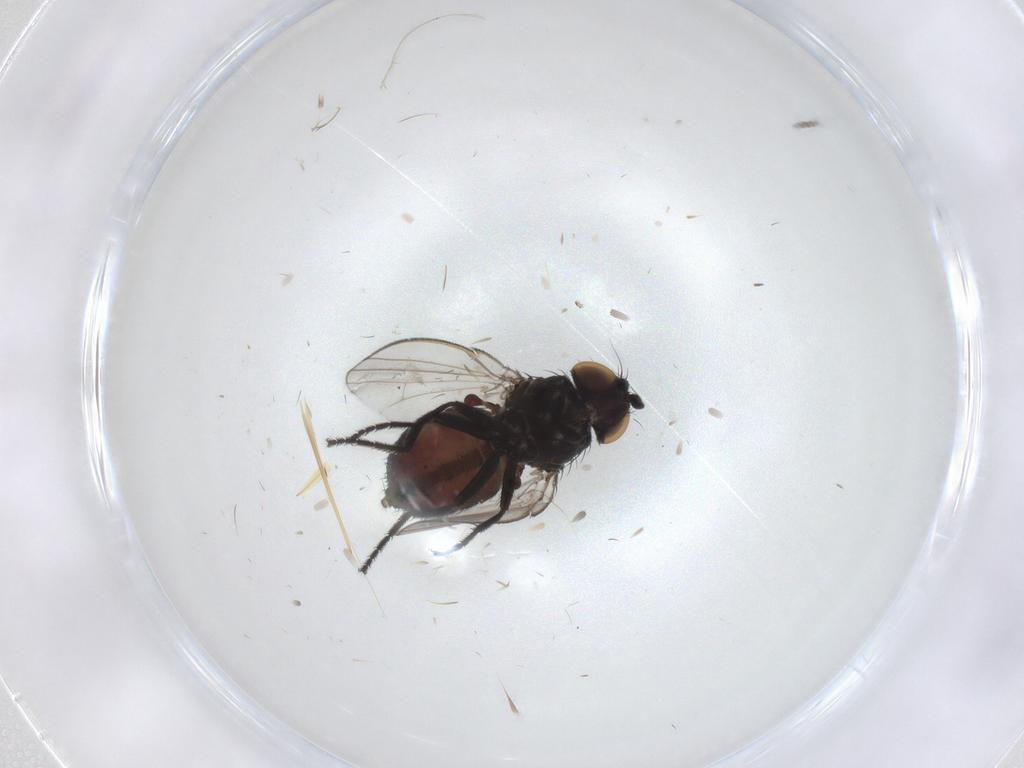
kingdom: Animalia
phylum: Arthropoda
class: Insecta
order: Diptera
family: Milichiidae
